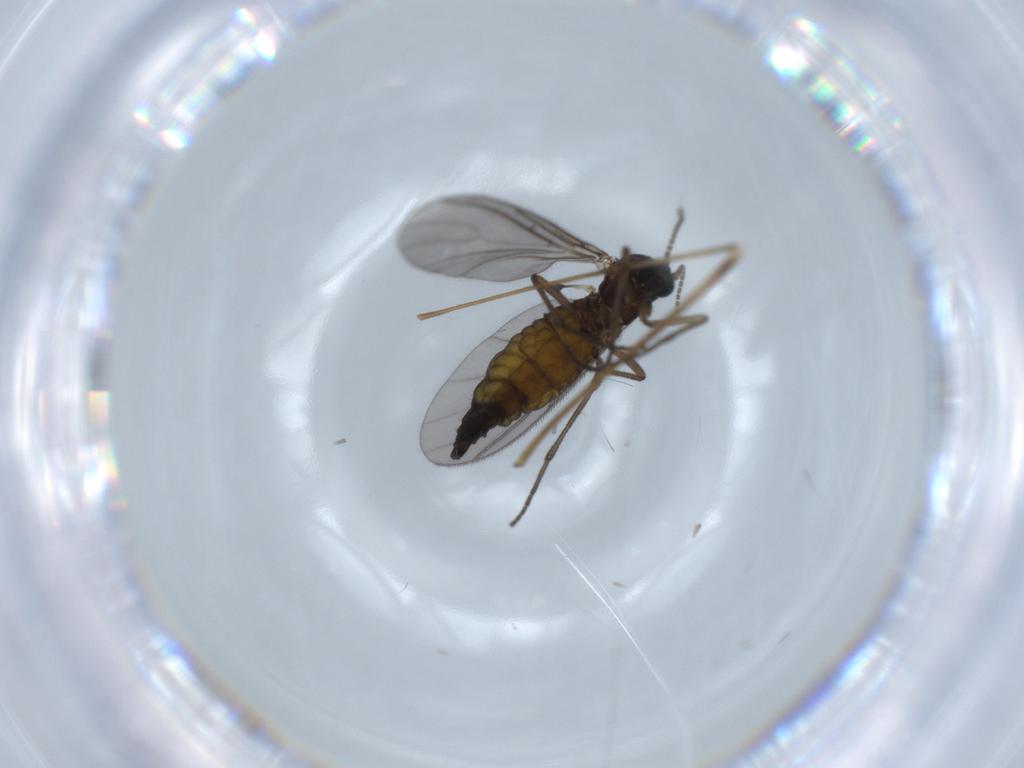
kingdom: Animalia
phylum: Arthropoda
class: Insecta
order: Diptera
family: Sciaridae
